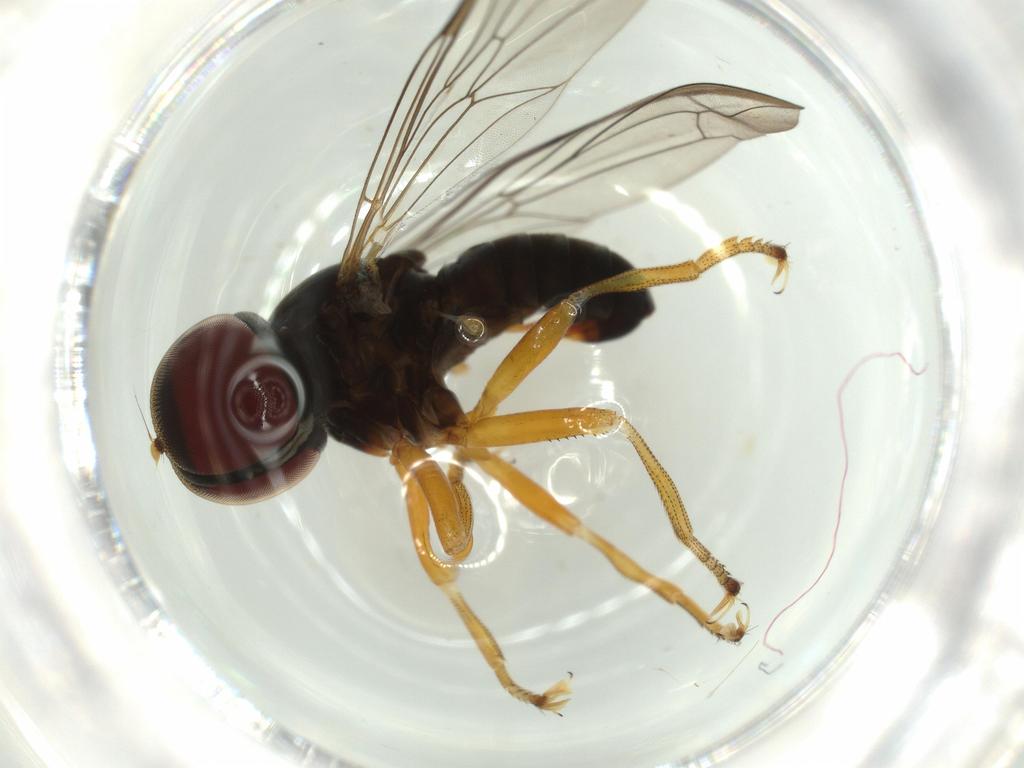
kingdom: Animalia
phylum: Arthropoda
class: Insecta
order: Diptera
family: Pipunculidae
